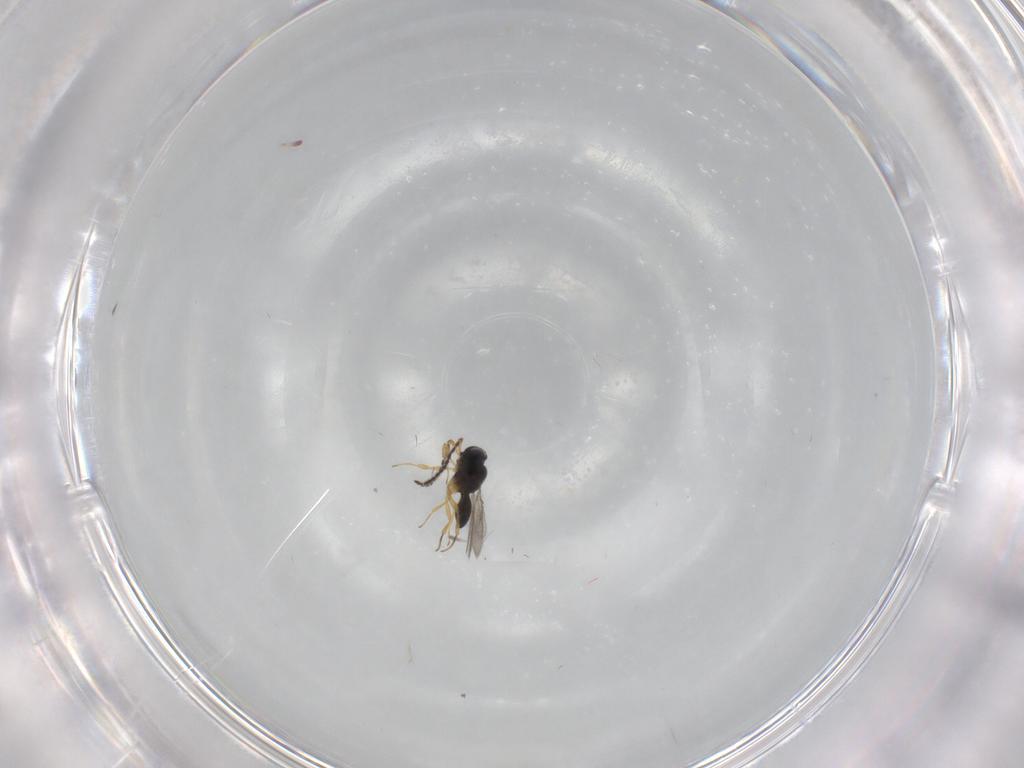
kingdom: Animalia
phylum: Arthropoda
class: Insecta
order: Hymenoptera
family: Scelionidae
